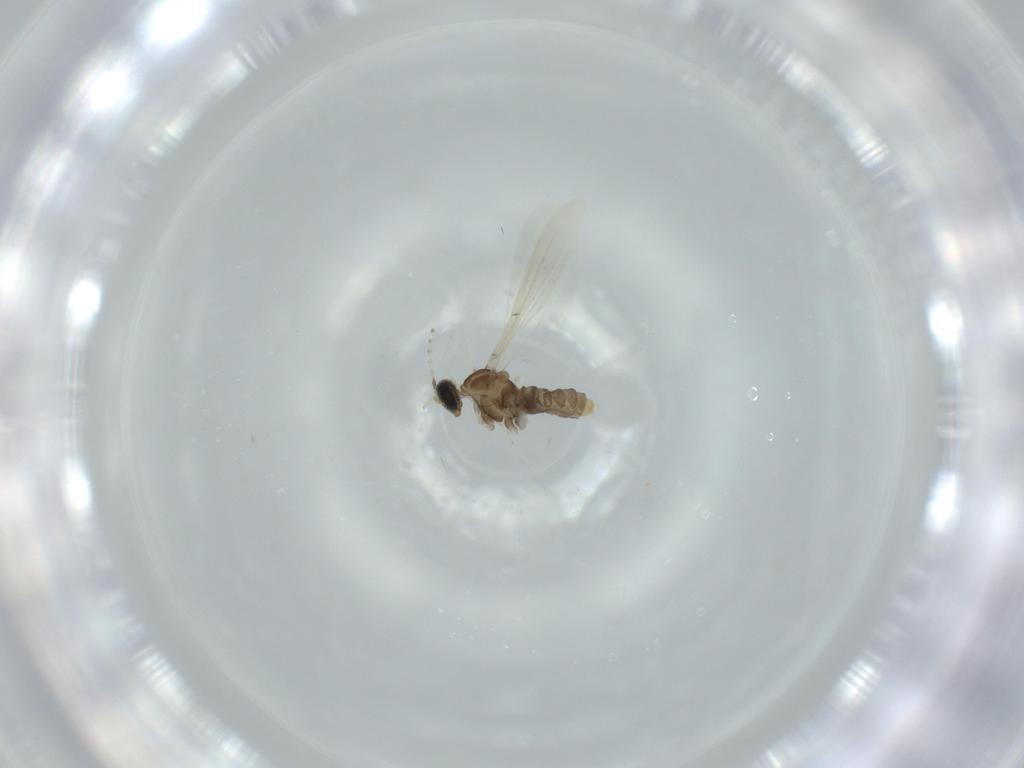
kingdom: Animalia
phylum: Arthropoda
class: Insecta
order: Diptera
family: Cecidomyiidae
